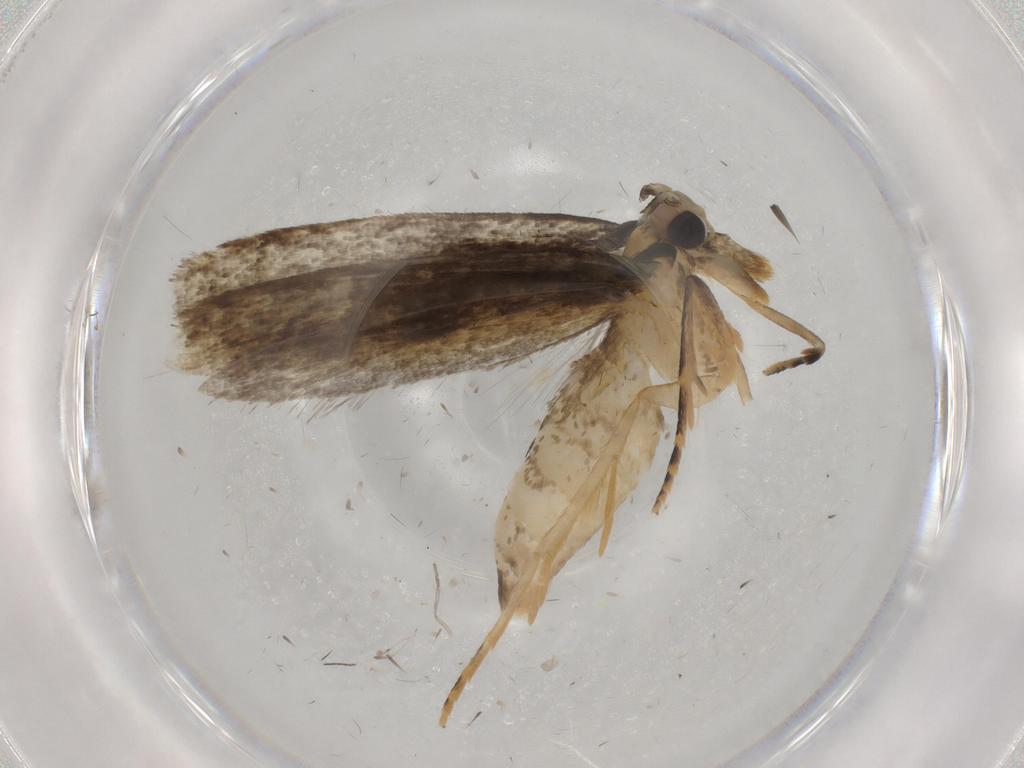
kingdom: Animalia
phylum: Arthropoda
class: Insecta
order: Lepidoptera
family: Tineidae
